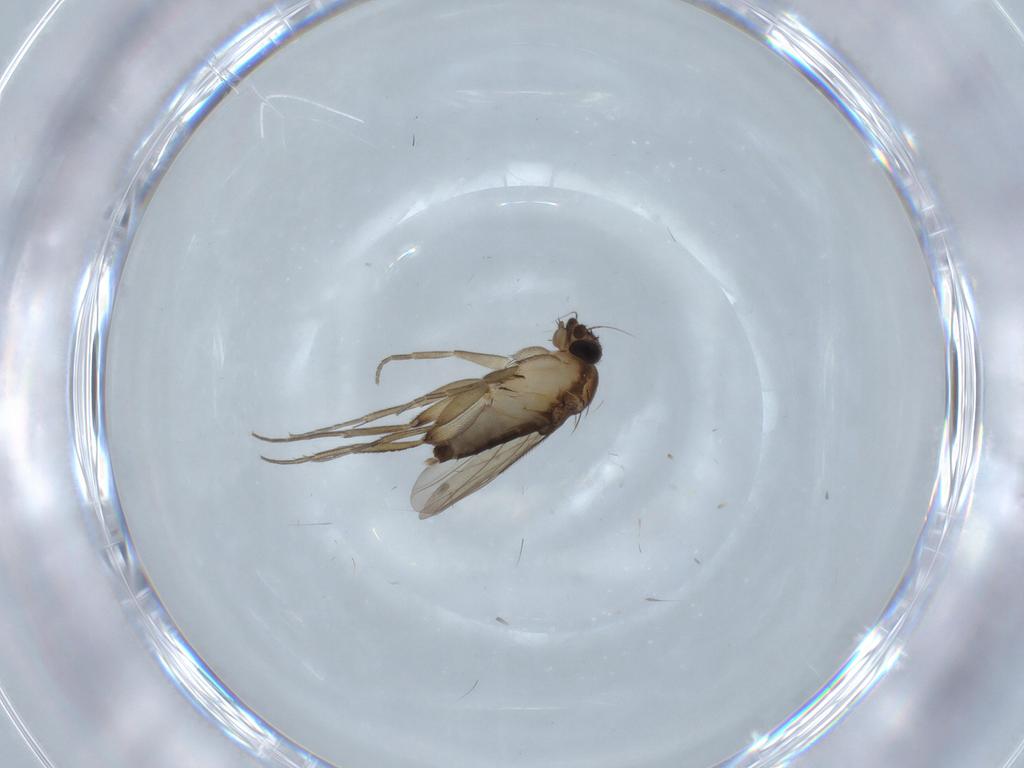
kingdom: Animalia
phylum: Arthropoda
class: Insecta
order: Diptera
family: Phoridae
